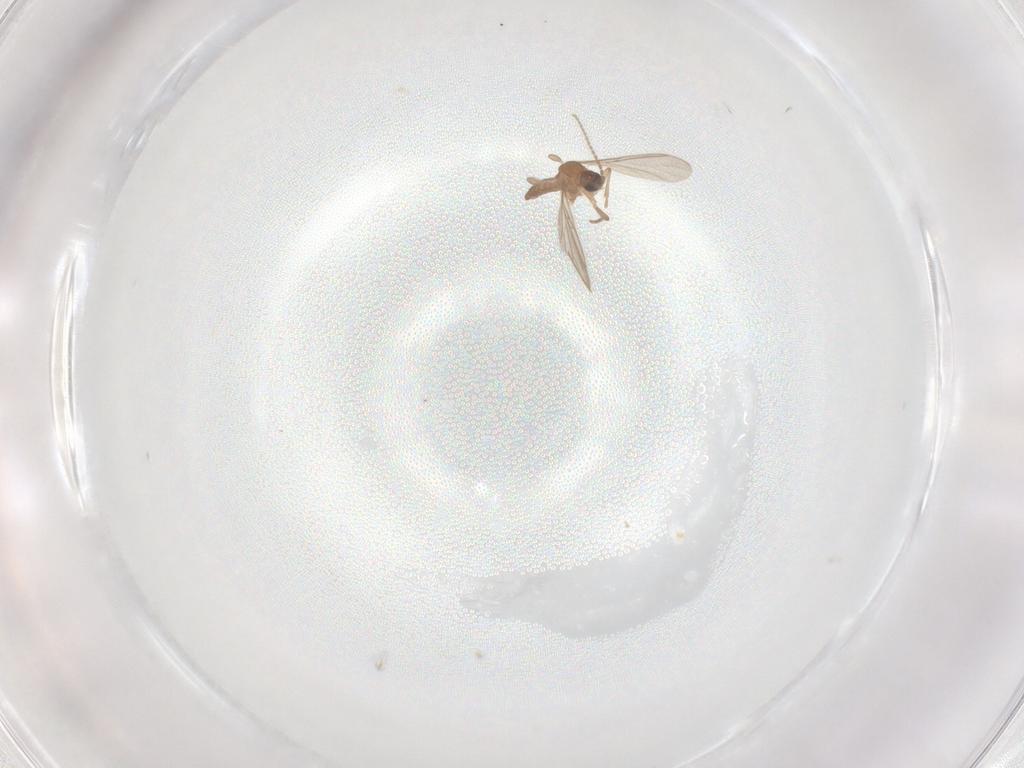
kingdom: Animalia
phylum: Arthropoda
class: Insecta
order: Diptera
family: Cecidomyiidae
